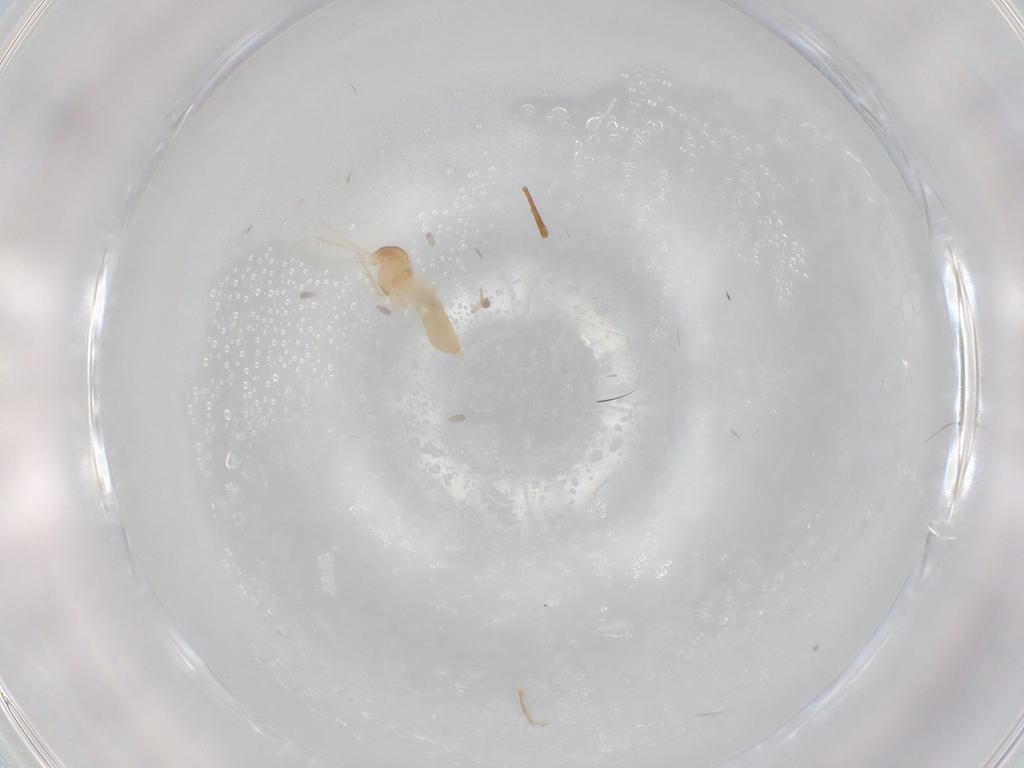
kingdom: Animalia
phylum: Arthropoda
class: Insecta
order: Diptera
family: Cecidomyiidae
